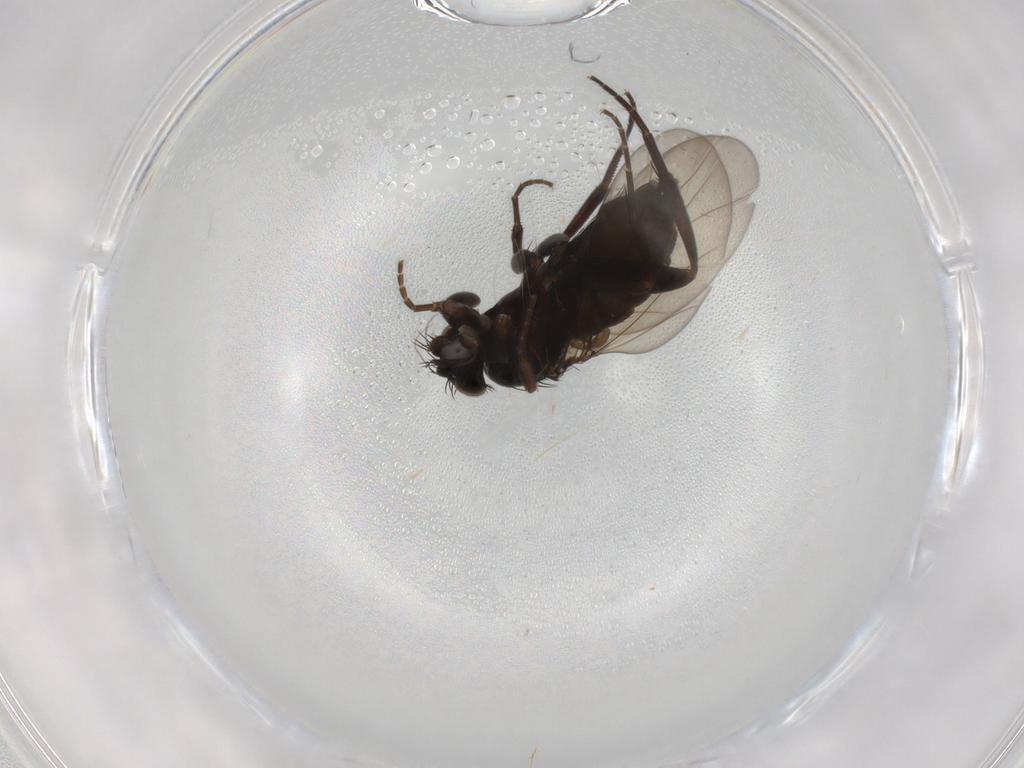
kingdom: Animalia
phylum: Arthropoda
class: Insecta
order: Diptera
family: Phoridae
